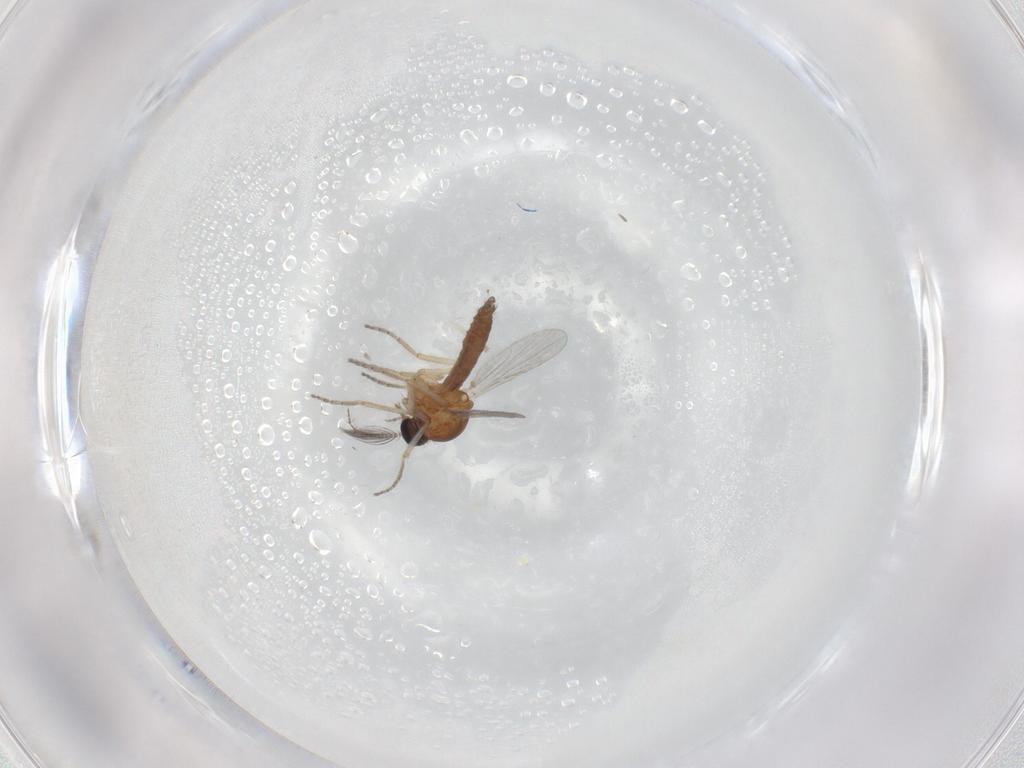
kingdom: Animalia
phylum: Arthropoda
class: Insecta
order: Diptera
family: Ceratopogonidae
